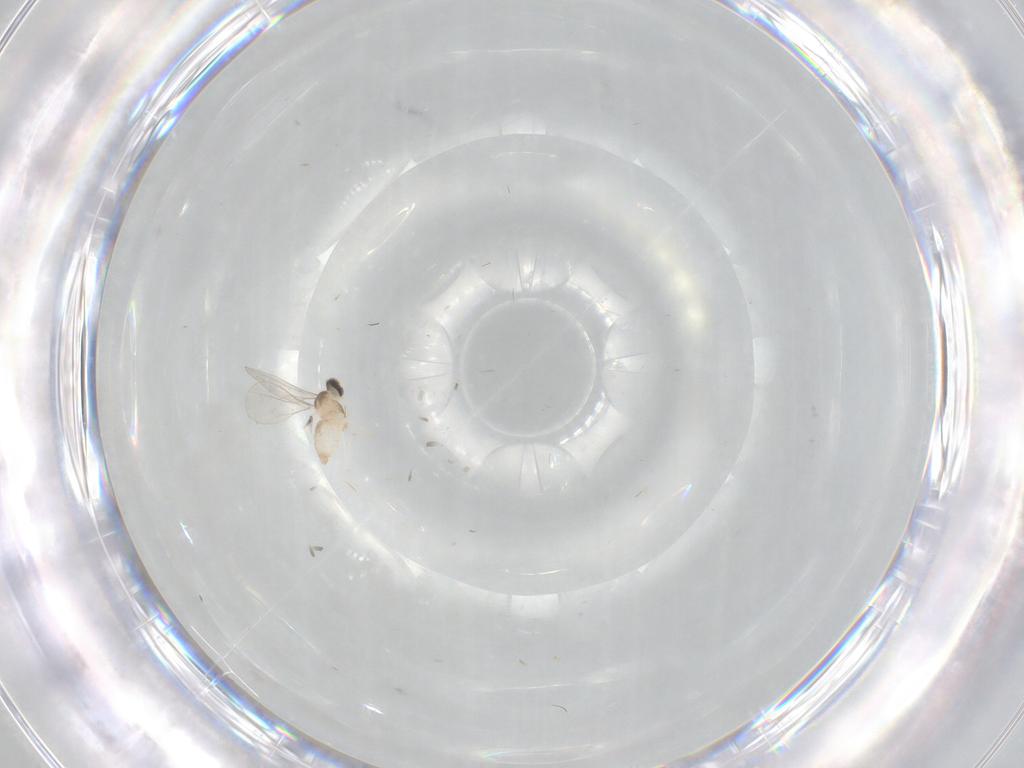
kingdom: Animalia
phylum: Arthropoda
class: Insecta
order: Diptera
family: Cecidomyiidae
